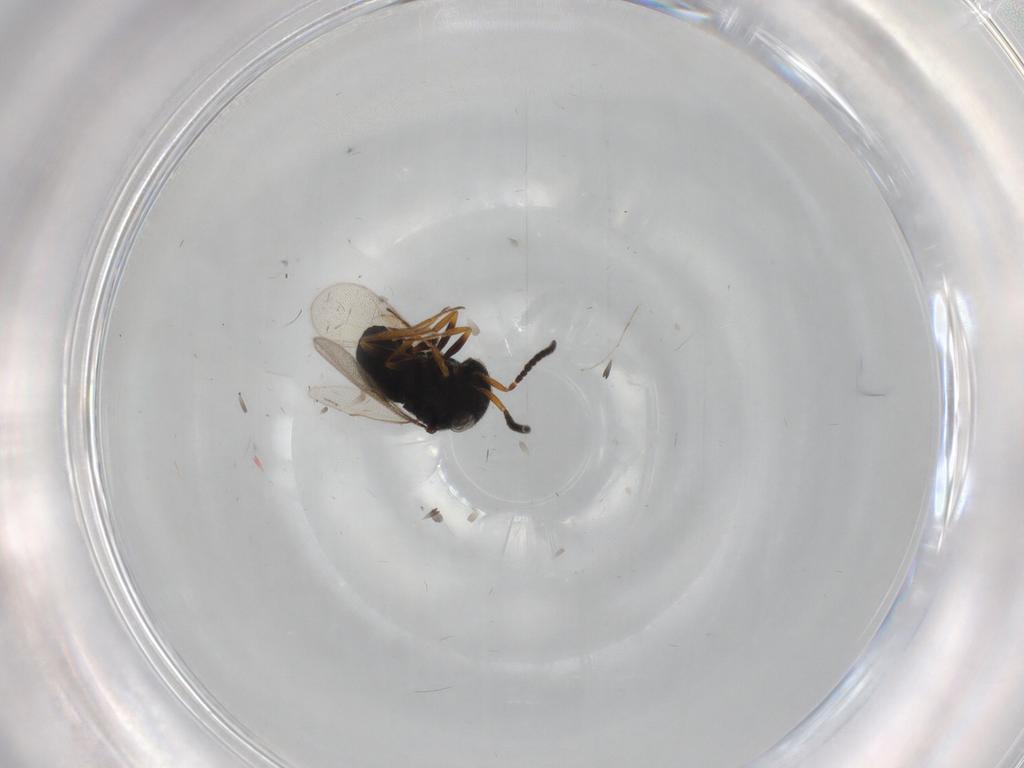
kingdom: Animalia
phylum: Arthropoda
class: Insecta
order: Hymenoptera
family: Scelionidae
